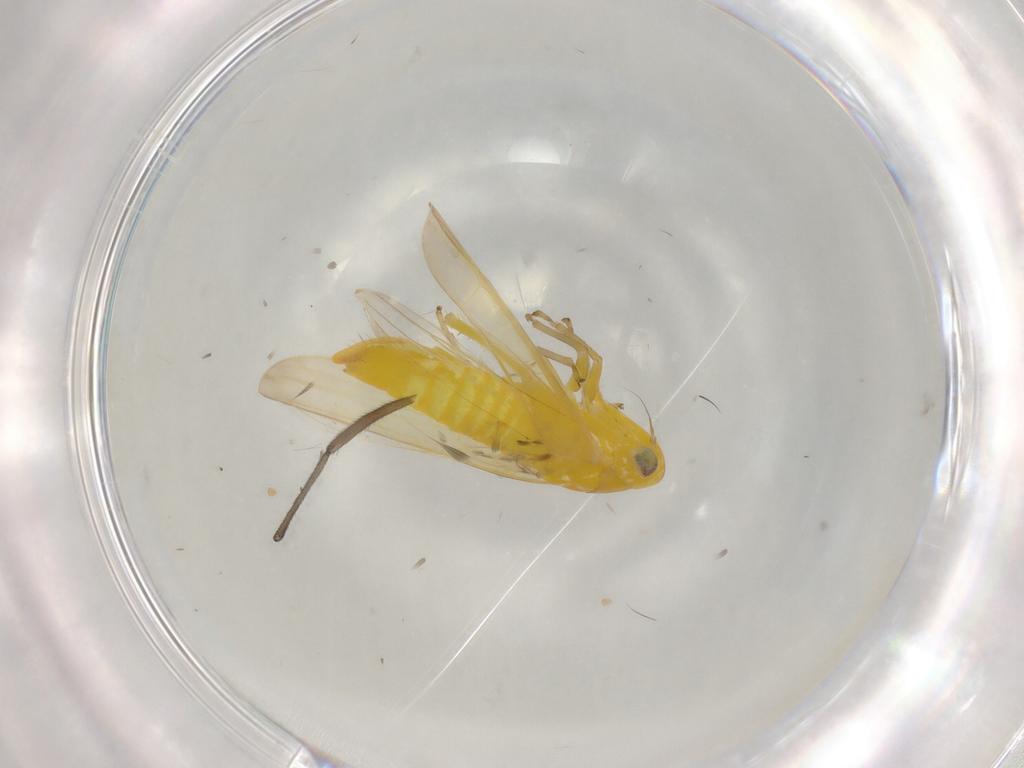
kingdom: Animalia
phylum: Arthropoda
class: Insecta
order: Hemiptera
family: Cicadellidae
